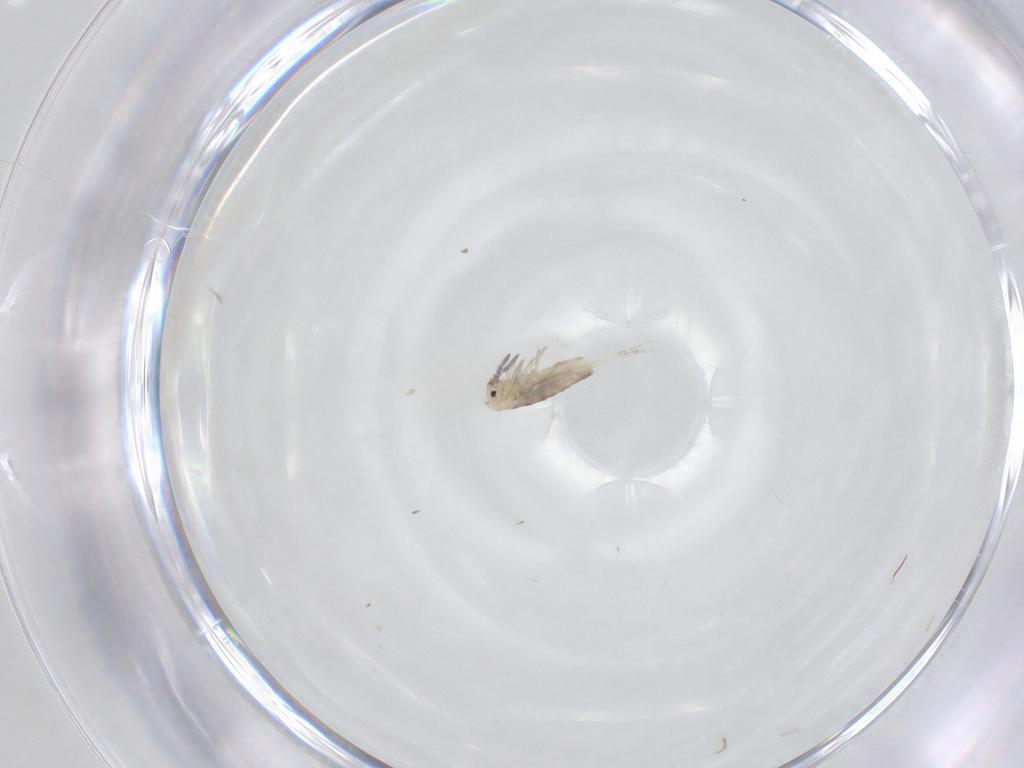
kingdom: Animalia
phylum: Arthropoda
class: Collembola
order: Entomobryomorpha
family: Entomobryidae
